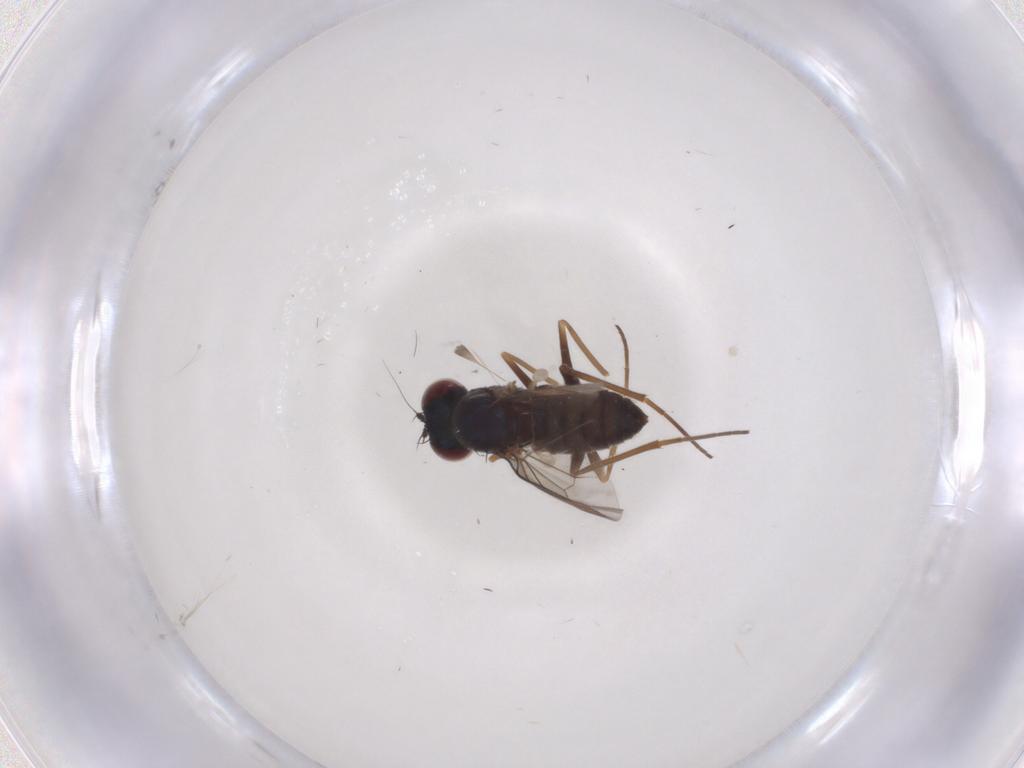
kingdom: Animalia
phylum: Arthropoda
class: Insecta
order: Diptera
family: Dolichopodidae
